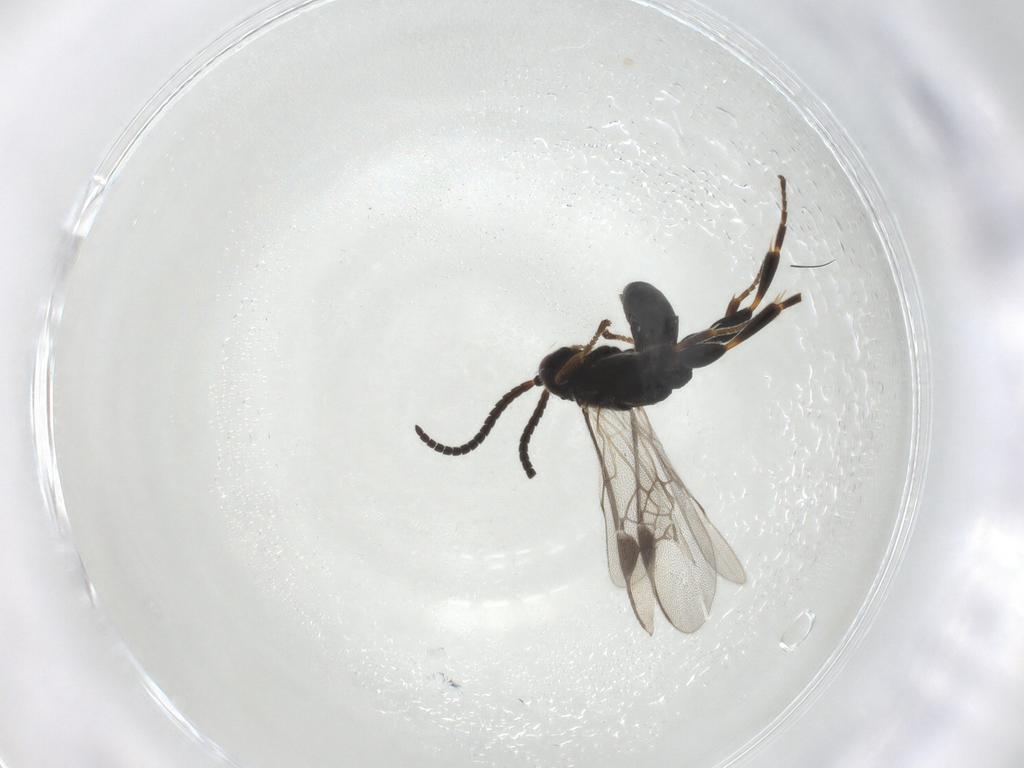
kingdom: Animalia
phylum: Arthropoda
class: Insecta
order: Hymenoptera
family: Braconidae
